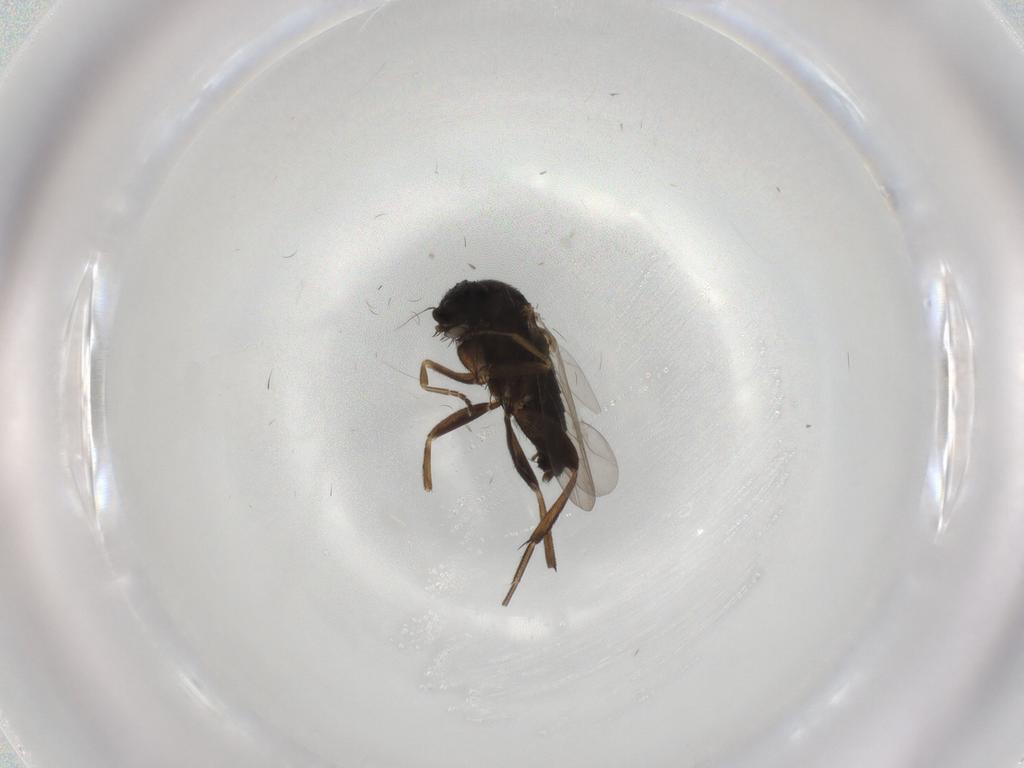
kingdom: Animalia
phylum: Arthropoda
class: Insecta
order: Diptera
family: Phoridae
